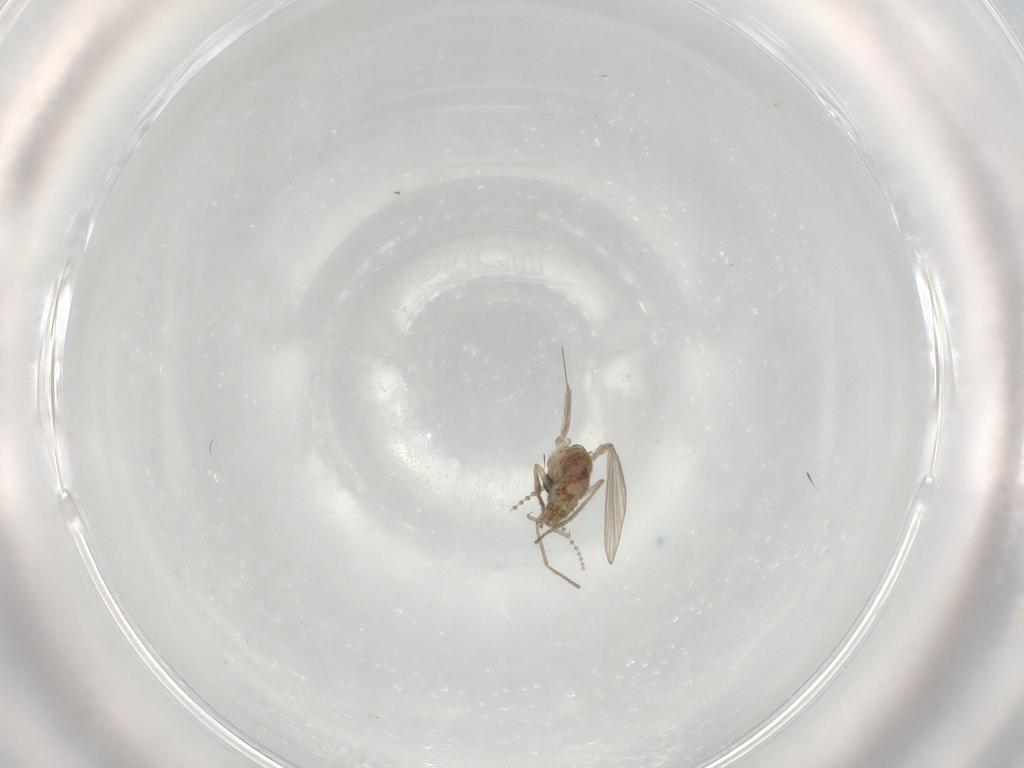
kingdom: Animalia
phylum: Arthropoda
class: Insecta
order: Diptera
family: Psychodidae
